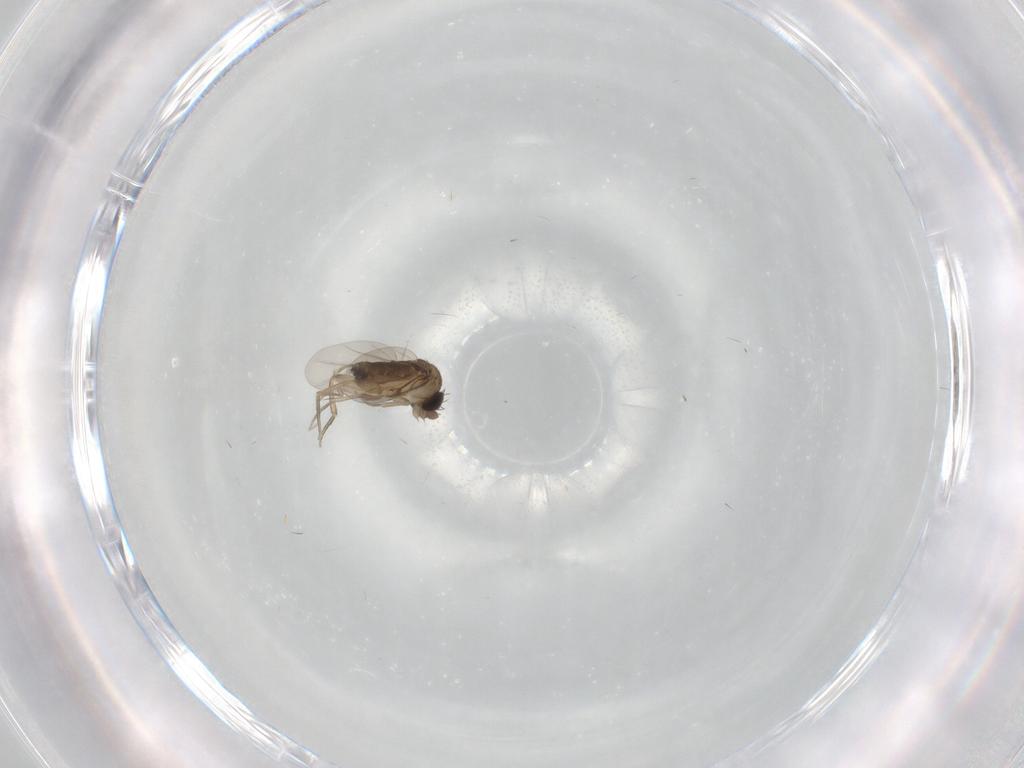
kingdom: Animalia
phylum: Arthropoda
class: Insecta
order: Diptera
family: Phoridae
